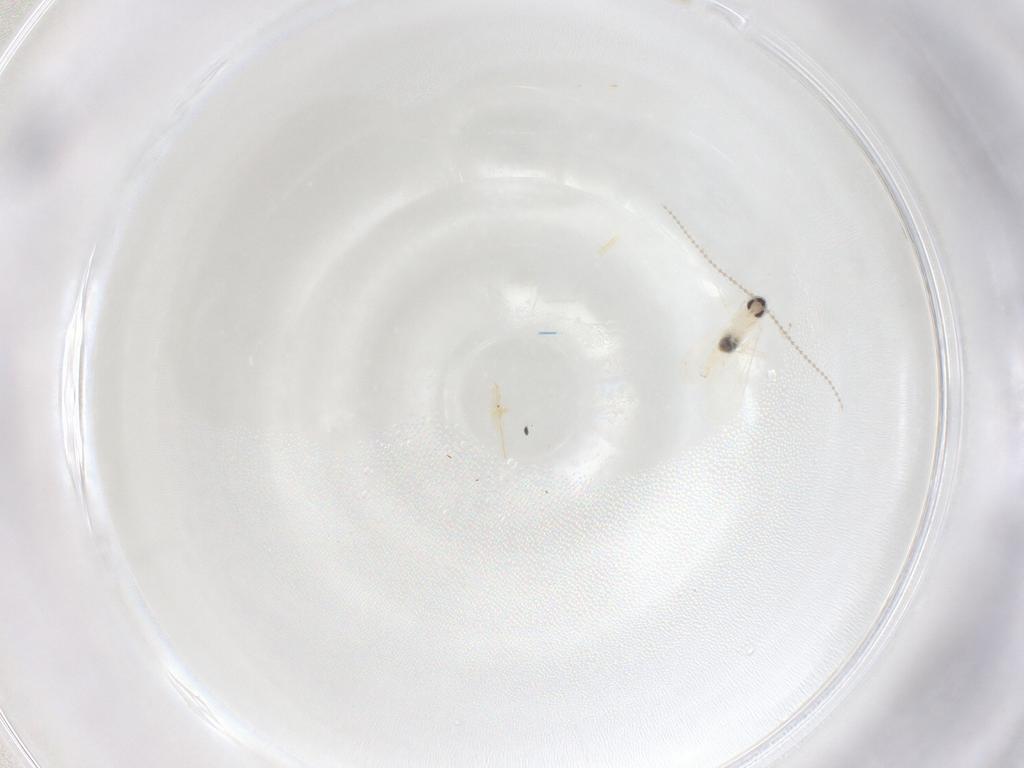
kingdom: Animalia
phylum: Arthropoda
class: Insecta
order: Diptera
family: Cecidomyiidae
